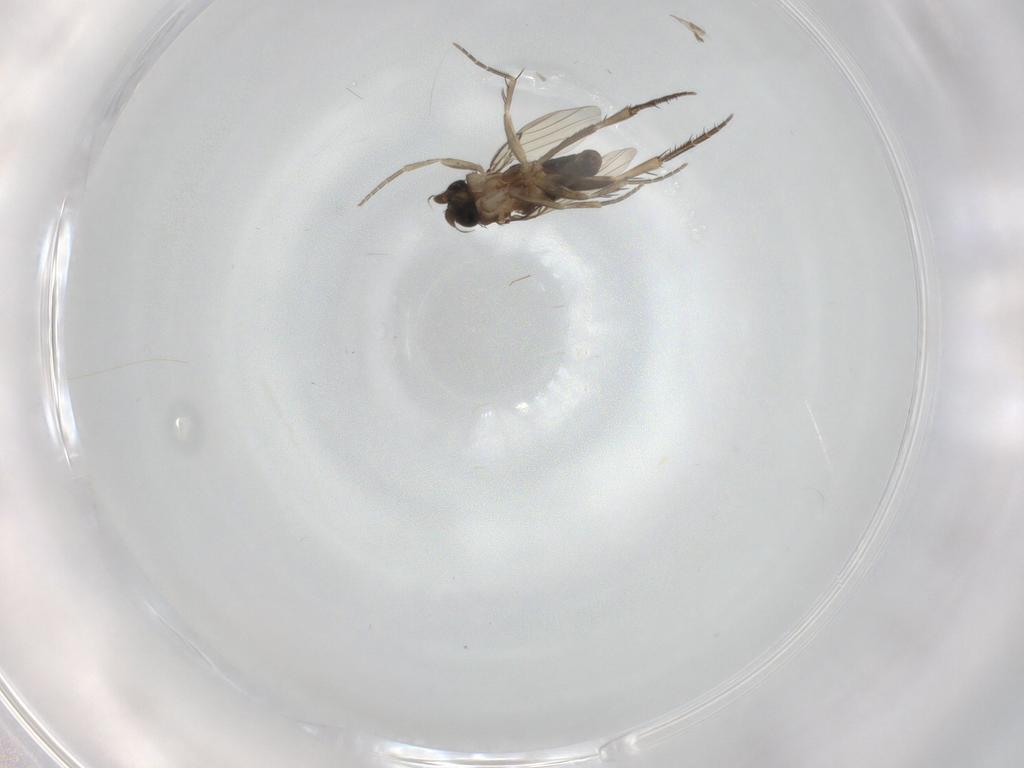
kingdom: Animalia
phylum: Arthropoda
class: Insecta
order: Diptera
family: Phoridae
